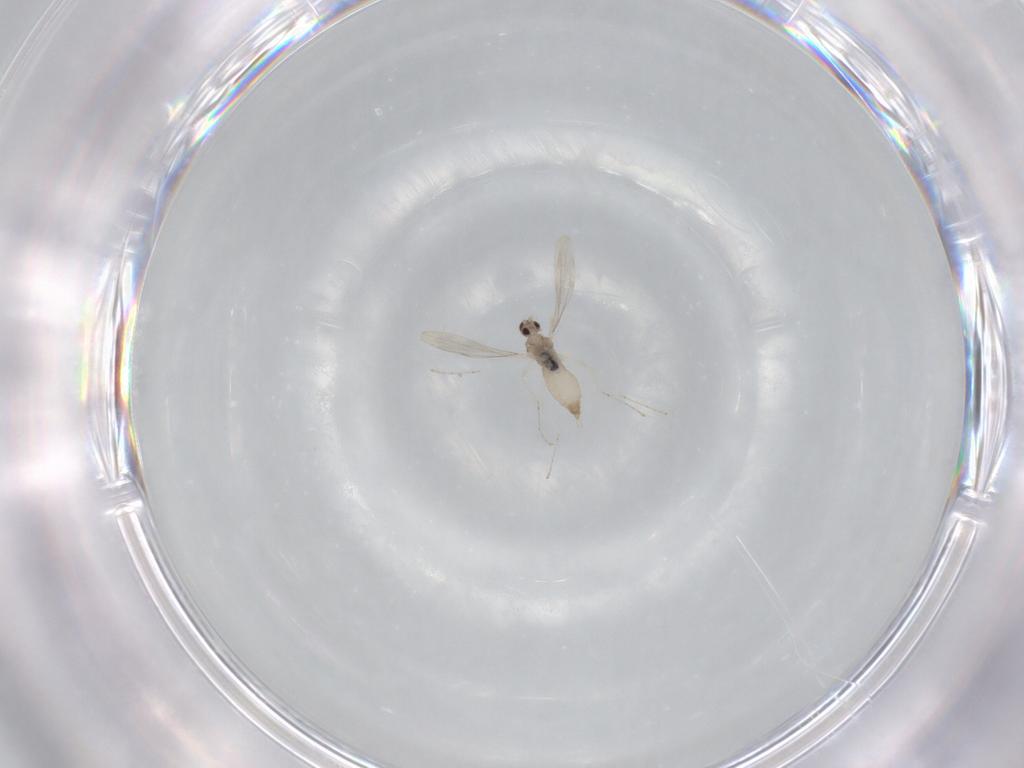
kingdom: Animalia
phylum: Arthropoda
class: Insecta
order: Diptera
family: Cecidomyiidae
